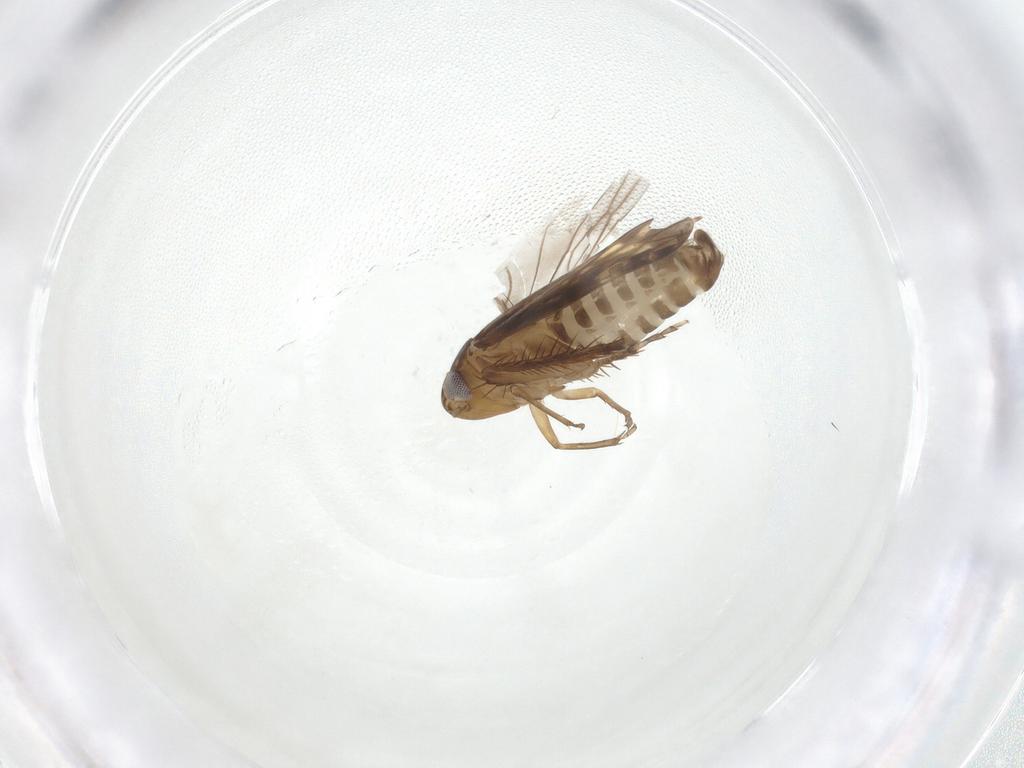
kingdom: Animalia
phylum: Arthropoda
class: Insecta
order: Hemiptera
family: Cicadellidae
